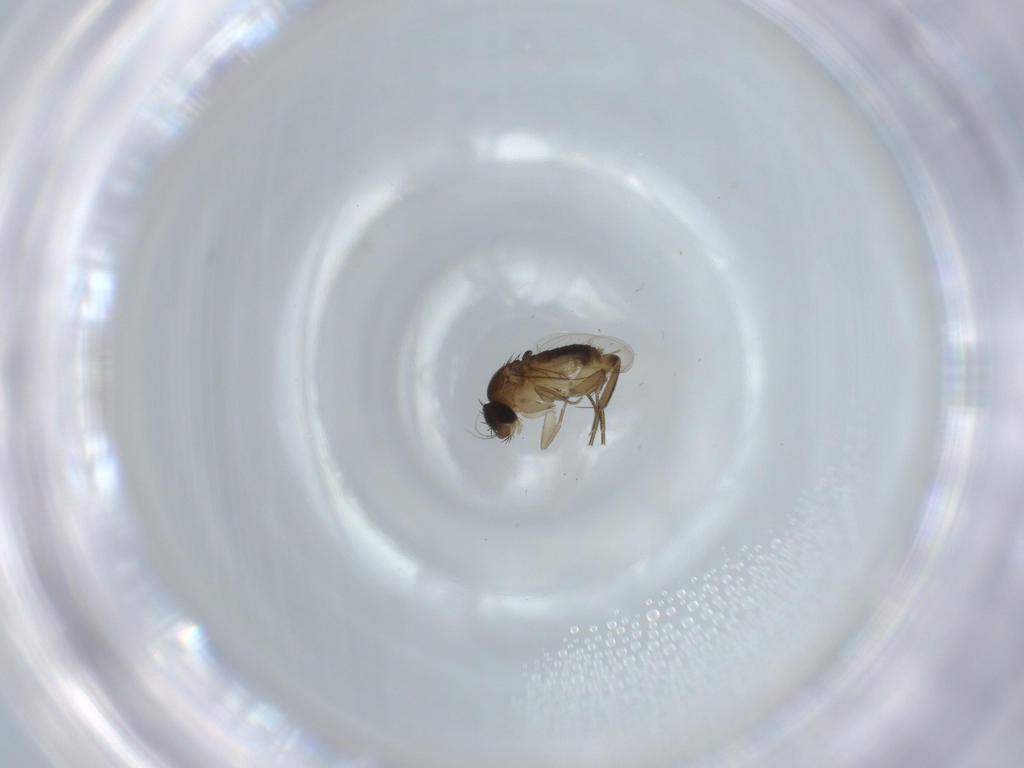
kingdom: Animalia
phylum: Arthropoda
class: Insecta
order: Diptera
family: Phoridae
